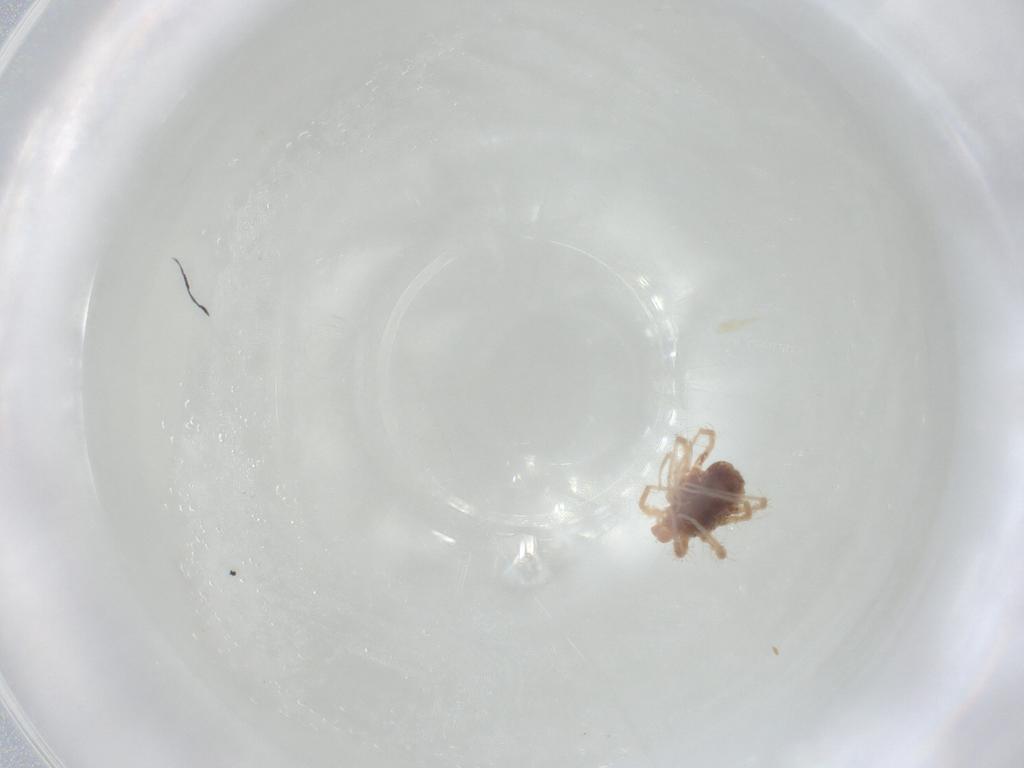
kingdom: Animalia
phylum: Arthropoda
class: Arachnida
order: Trombidiformes
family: Anystidae
